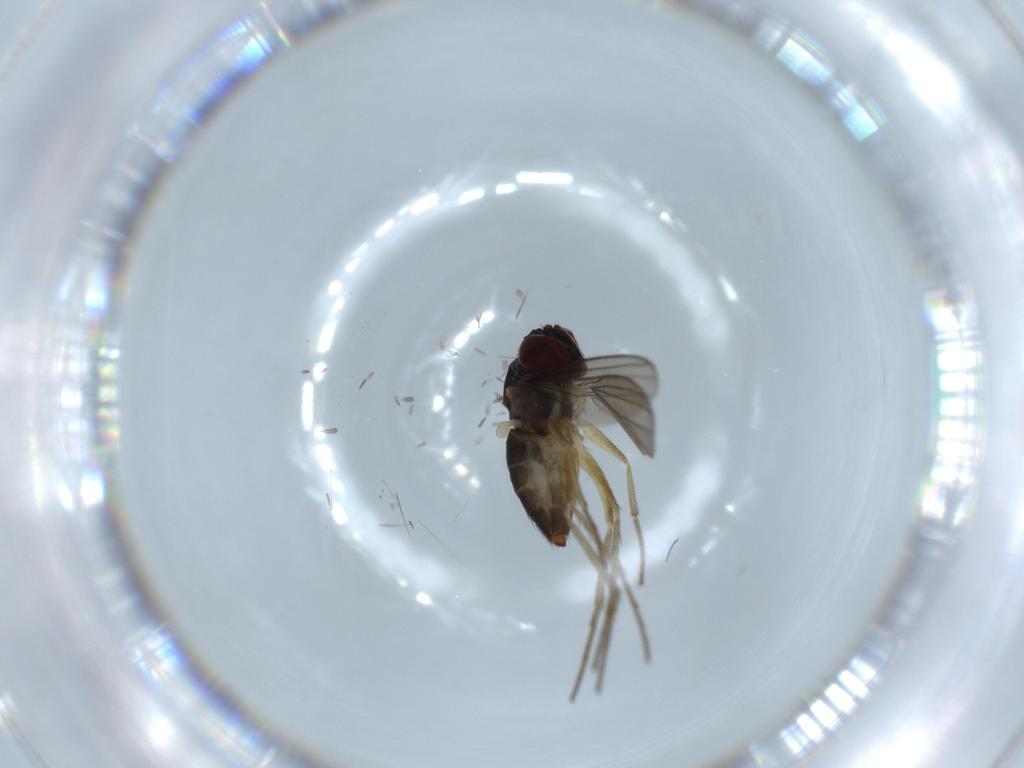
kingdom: Animalia
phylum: Arthropoda
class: Insecta
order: Diptera
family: Dolichopodidae
